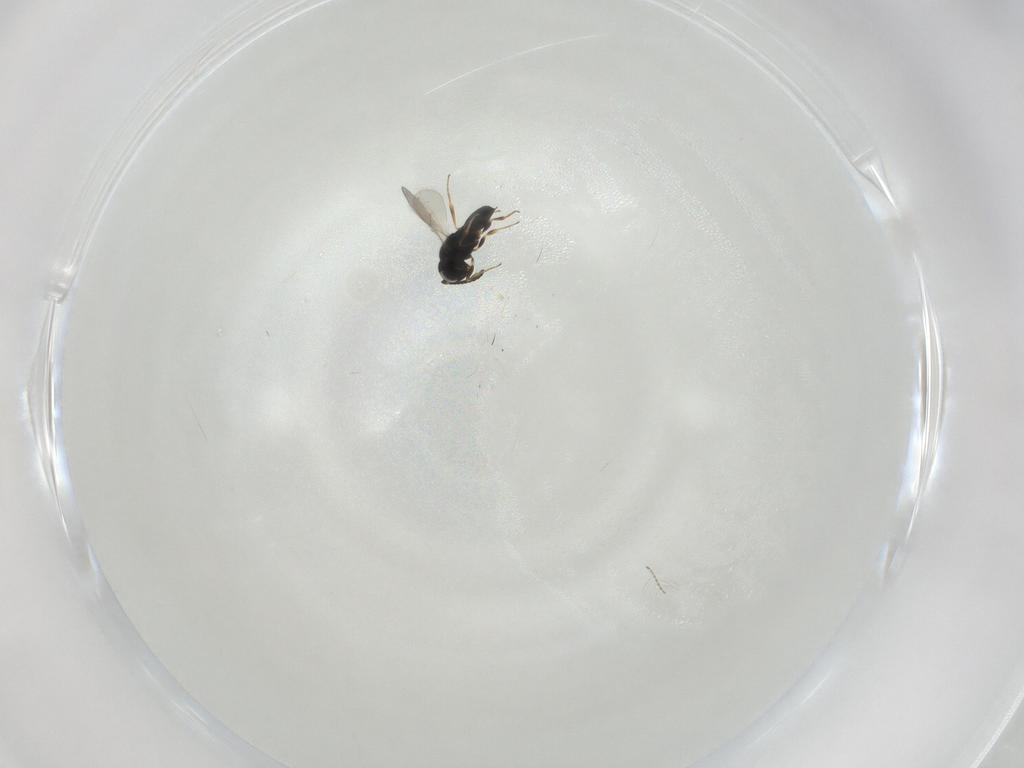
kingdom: Animalia
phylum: Arthropoda
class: Insecta
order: Hymenoptera
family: Scelionidae
